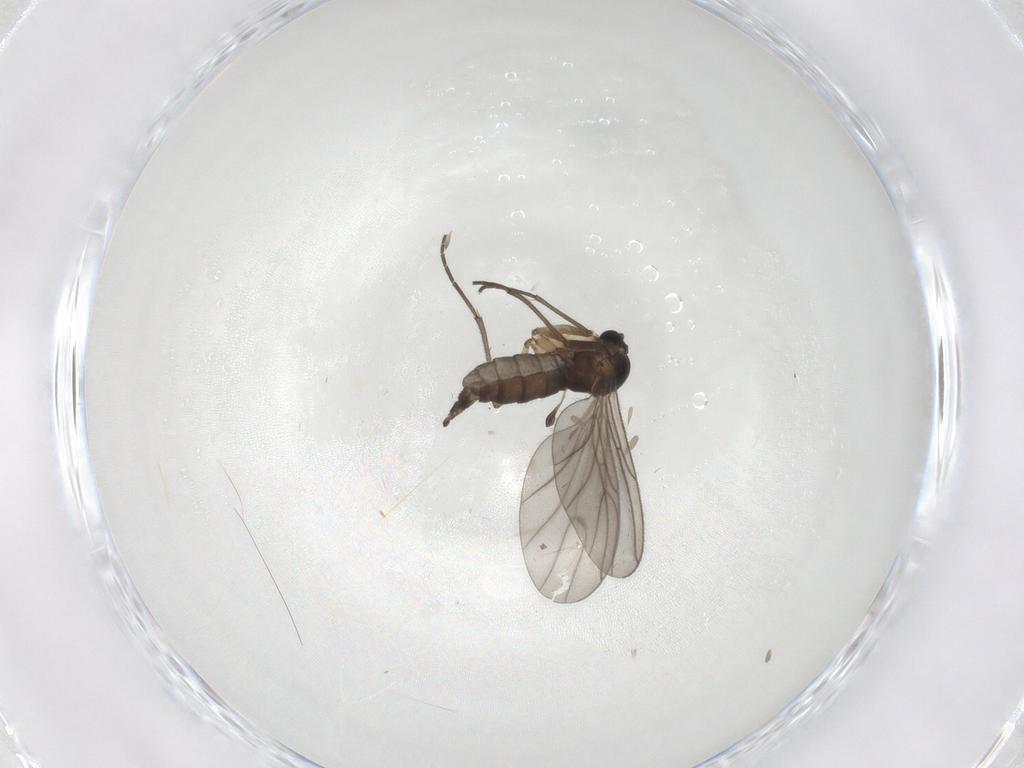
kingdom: Animalia
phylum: Arthropoda
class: Insecta
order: Diptera
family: Sciaridae
